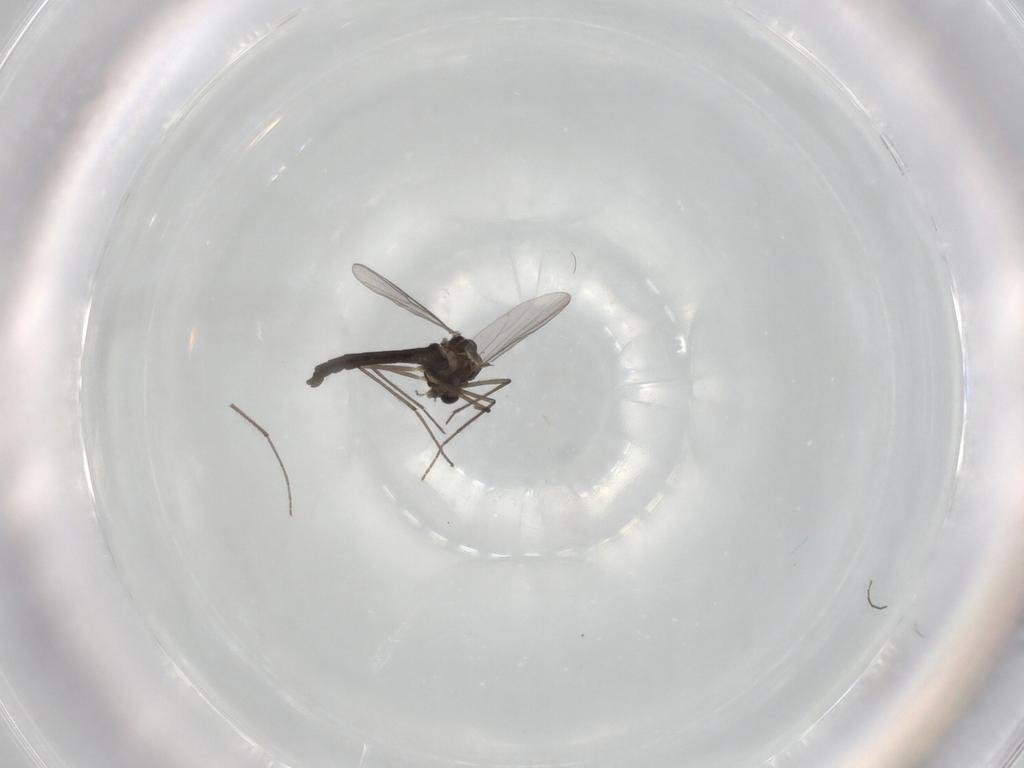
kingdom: Animalia
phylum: Arthropoda
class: Insecta
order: Diptera
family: Chironomidae
